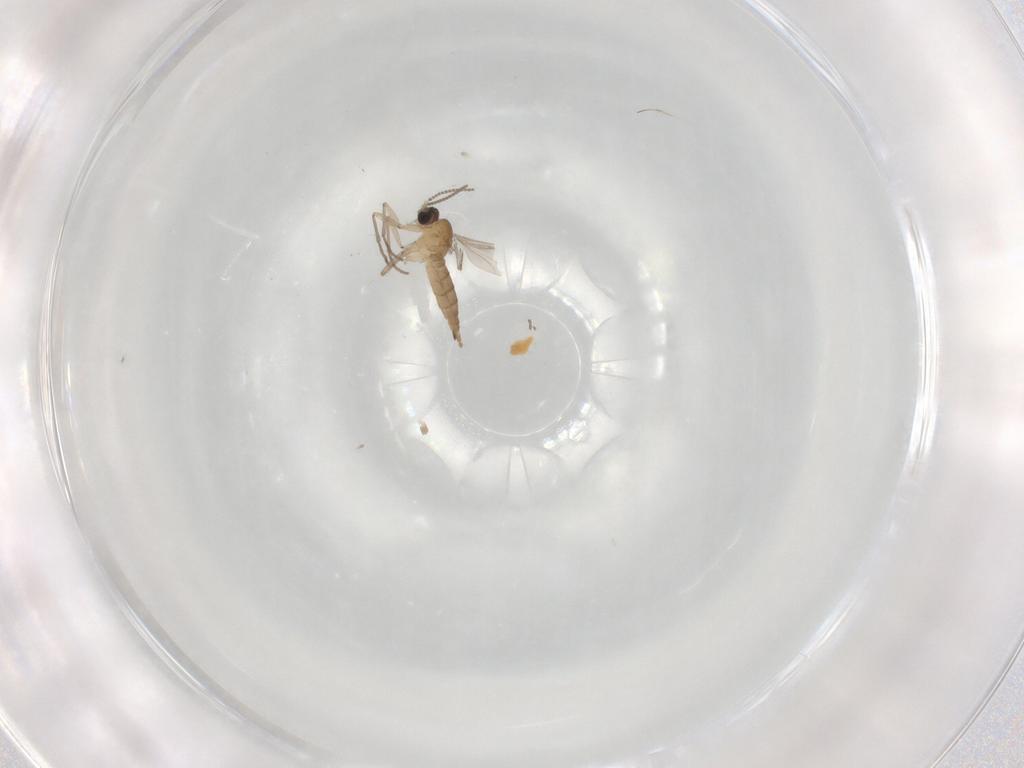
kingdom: Animalia
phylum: Arthropoda
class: Insecta
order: Diptera
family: Sciaridae
